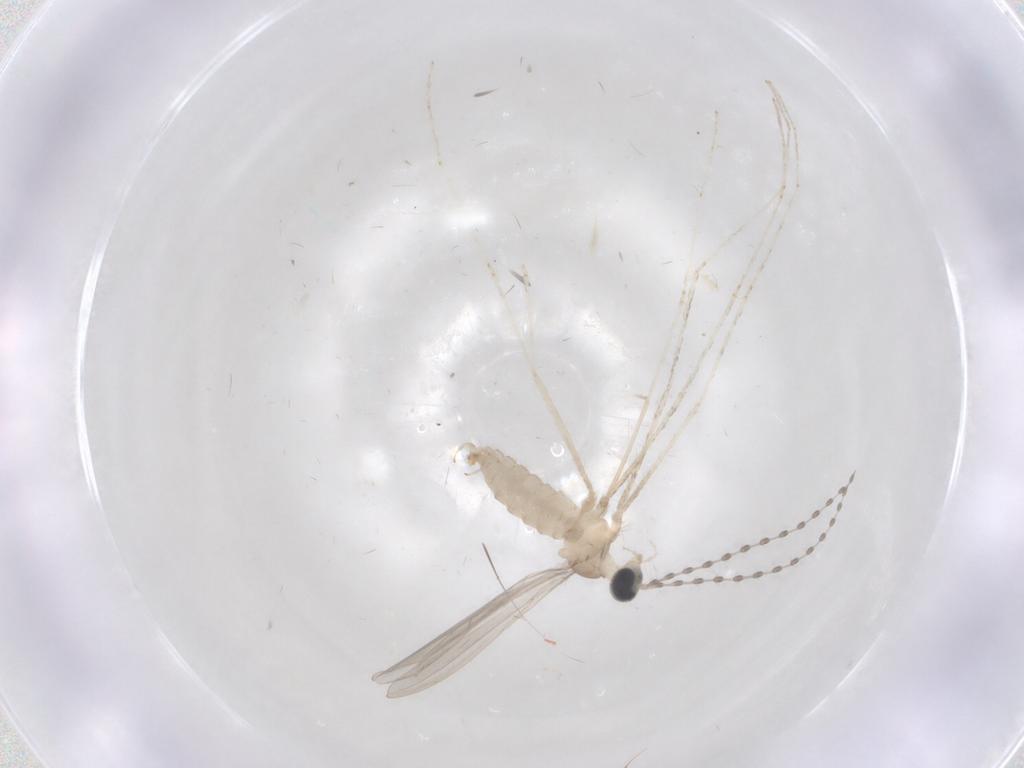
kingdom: Animalia
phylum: Arthropoda
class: Insecta
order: Diptera
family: Cecidomyiidae
